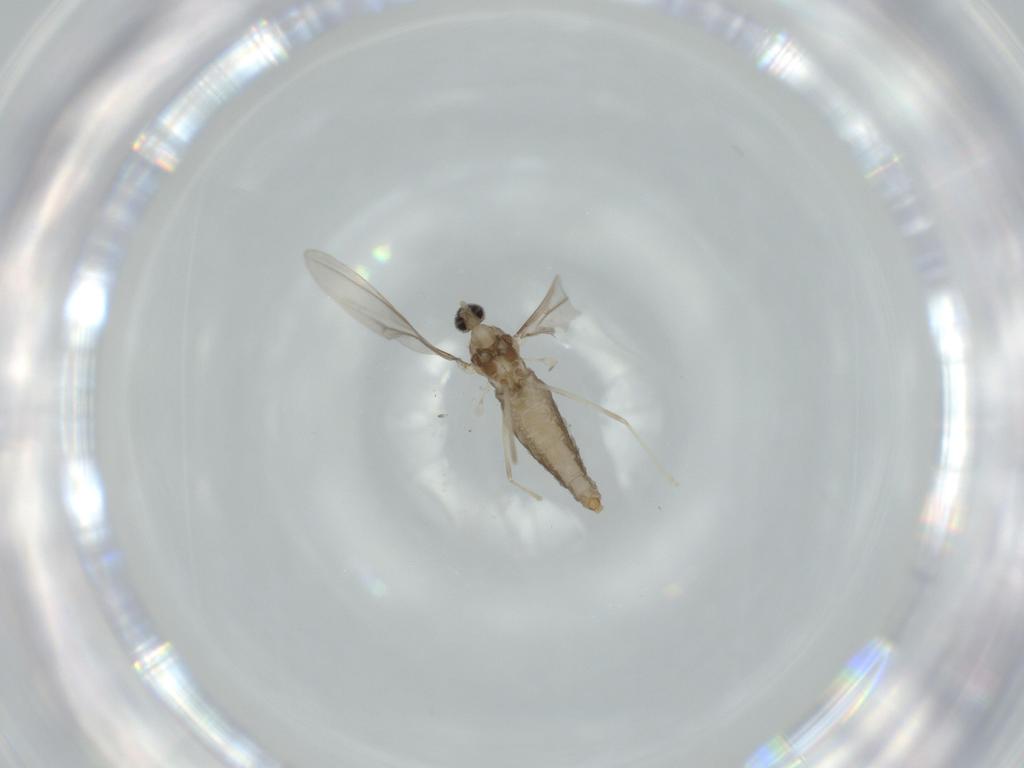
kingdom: Animalia
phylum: Arthropoda
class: Insecta
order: Diptera
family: Cecidomyiidae
